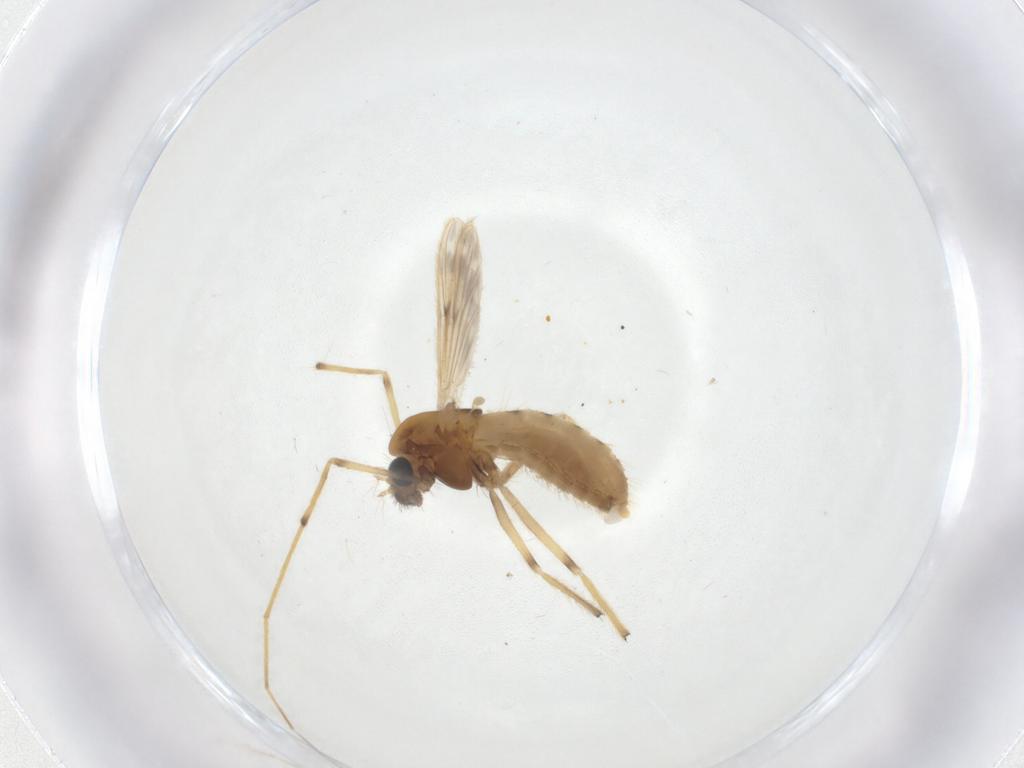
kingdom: Animalia
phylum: Arthropoda
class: Insecta
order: Diptera
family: Chironomidae
